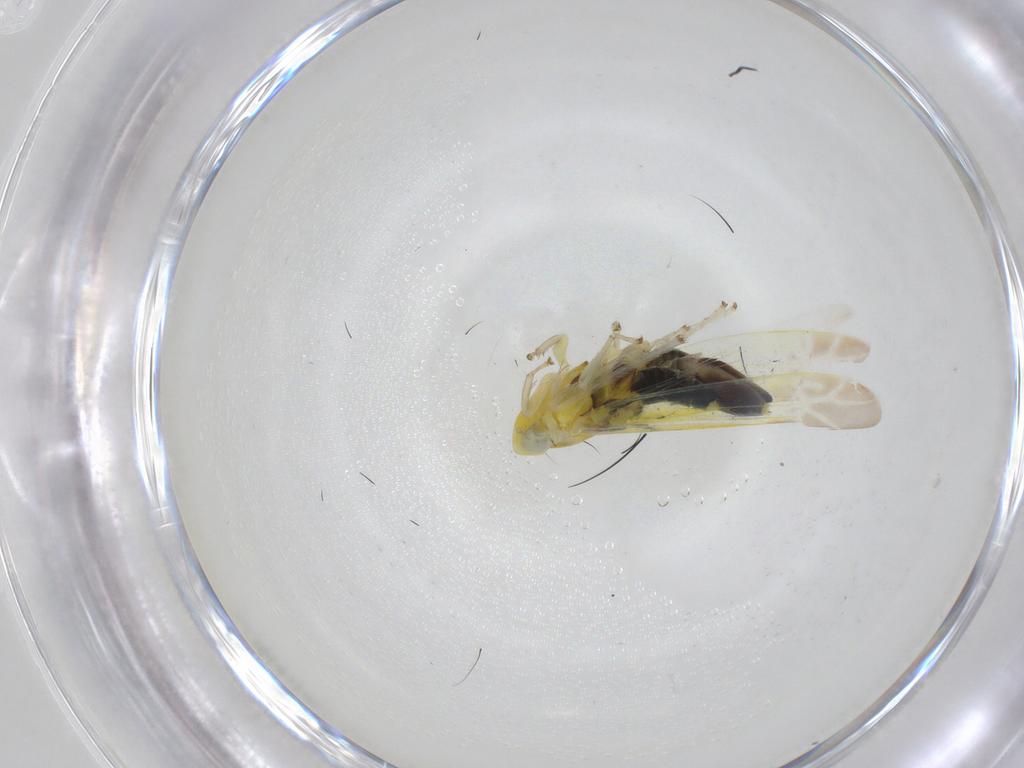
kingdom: Animalia
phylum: Arthropoda
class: Insecta
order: Hemiptera
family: Cicadellidae
